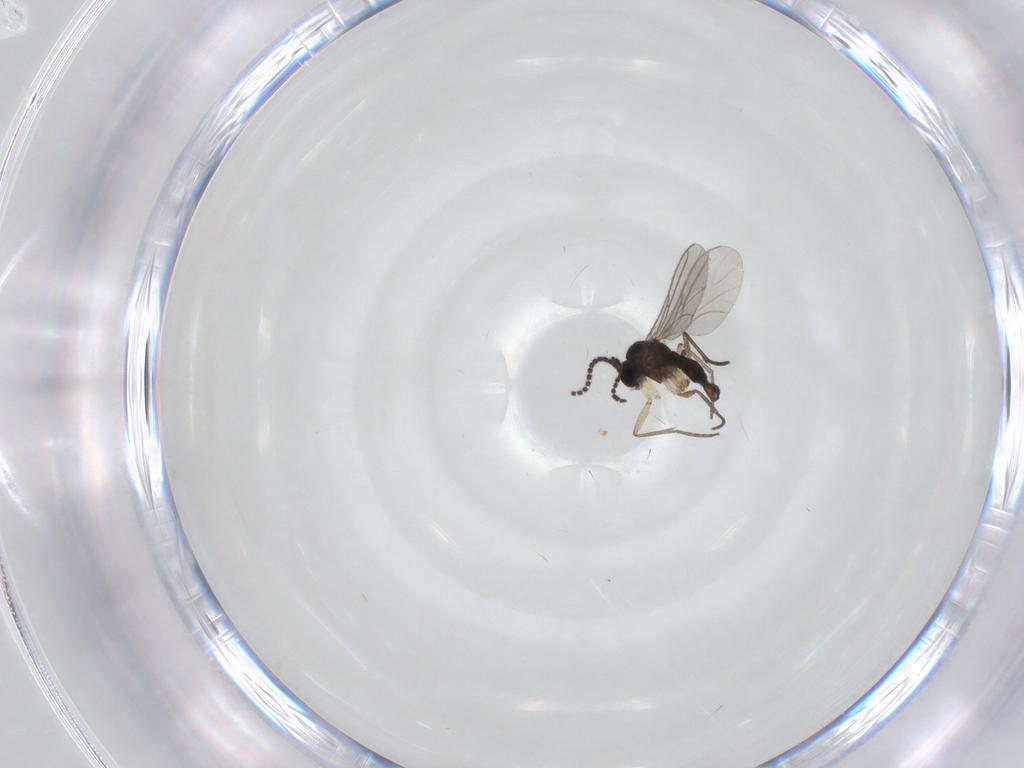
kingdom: Animalia
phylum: Arthropoda
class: Insecta
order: Diptera
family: Sciaridae
